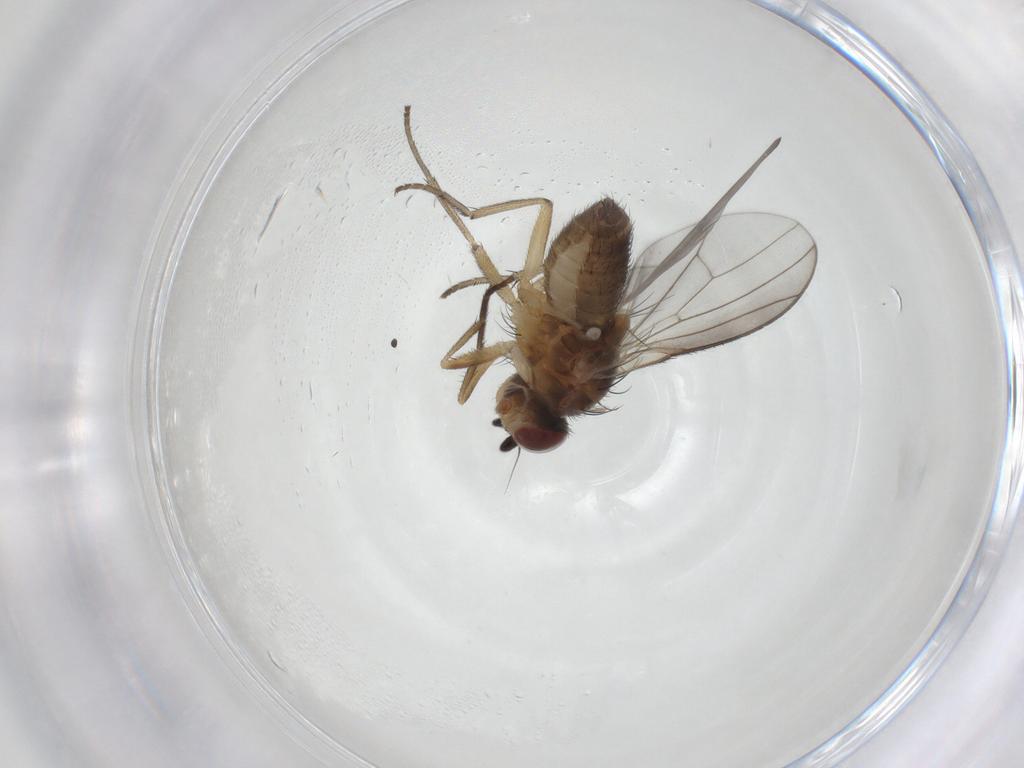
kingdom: Animalia
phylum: Arthropoda
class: Insecta
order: Diptera
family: Heleomyzidae
